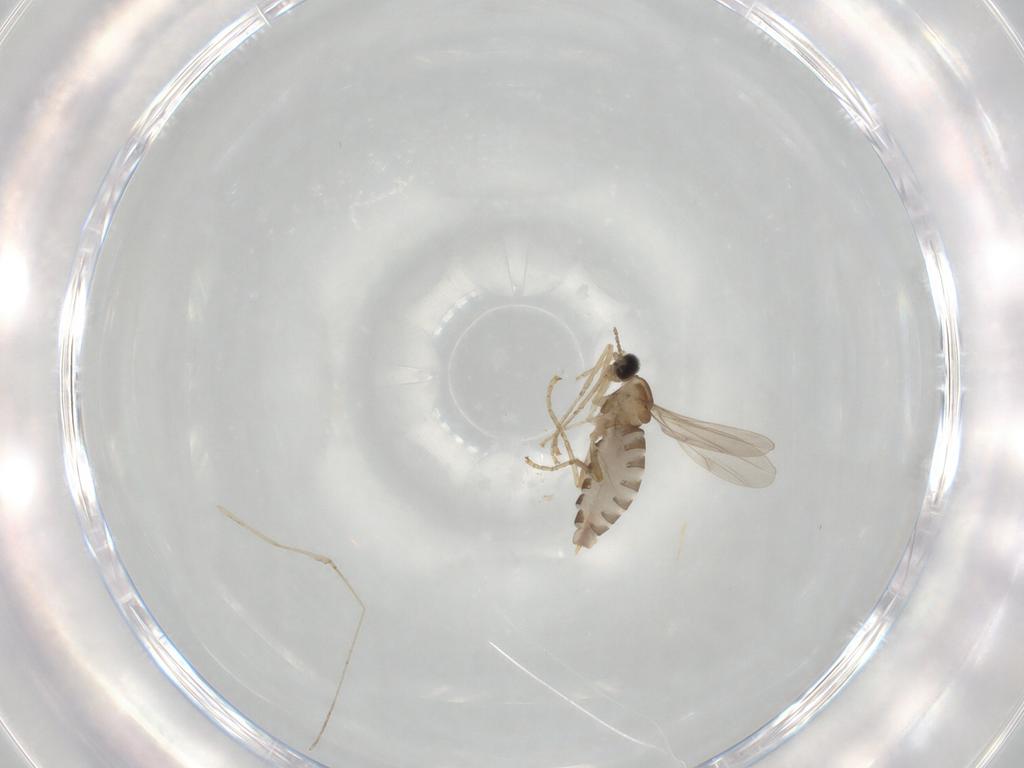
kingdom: Animalia
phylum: Arthropoda
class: Insecta
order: Diptera
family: Cecidomyiidae
